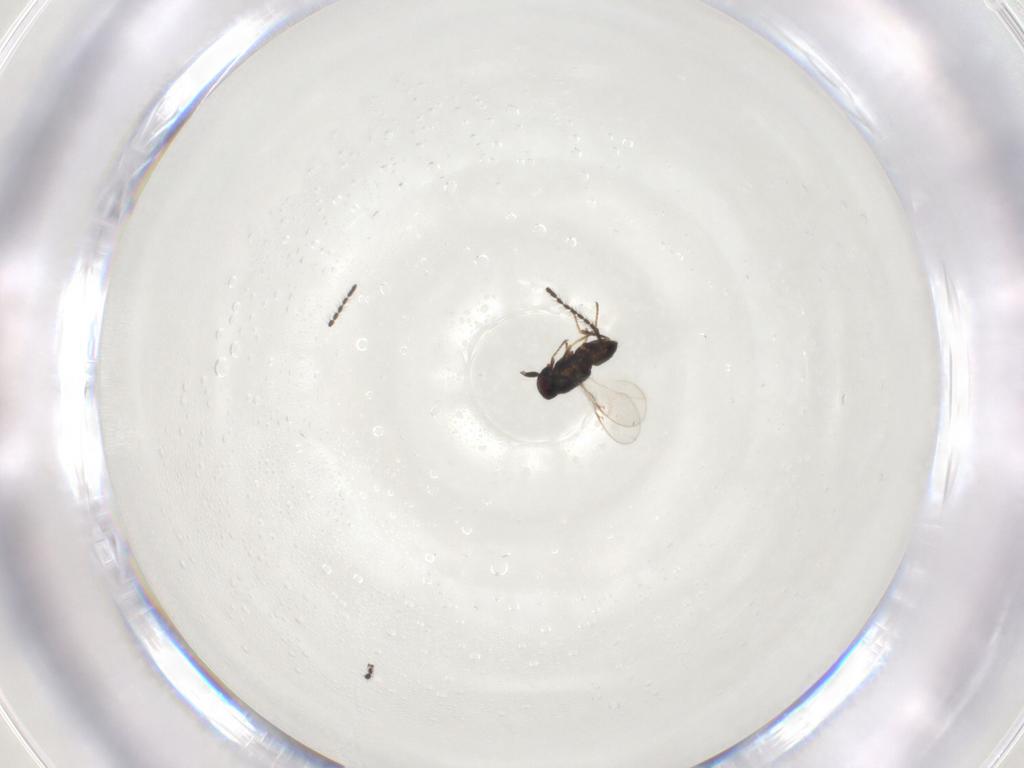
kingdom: Animalia
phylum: Arthropoda
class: Insecta
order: Hymenoptera
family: Encyrtidae
